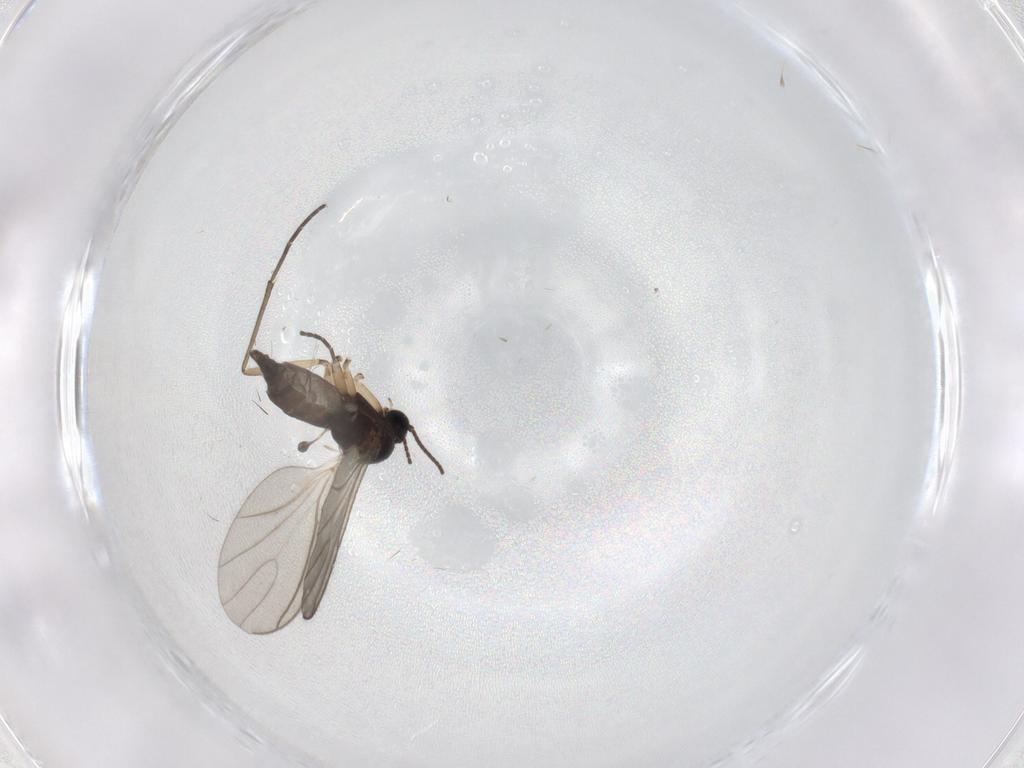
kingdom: Animalia
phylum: Arthropoda
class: Insecta
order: Diptera
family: Sciaridae
